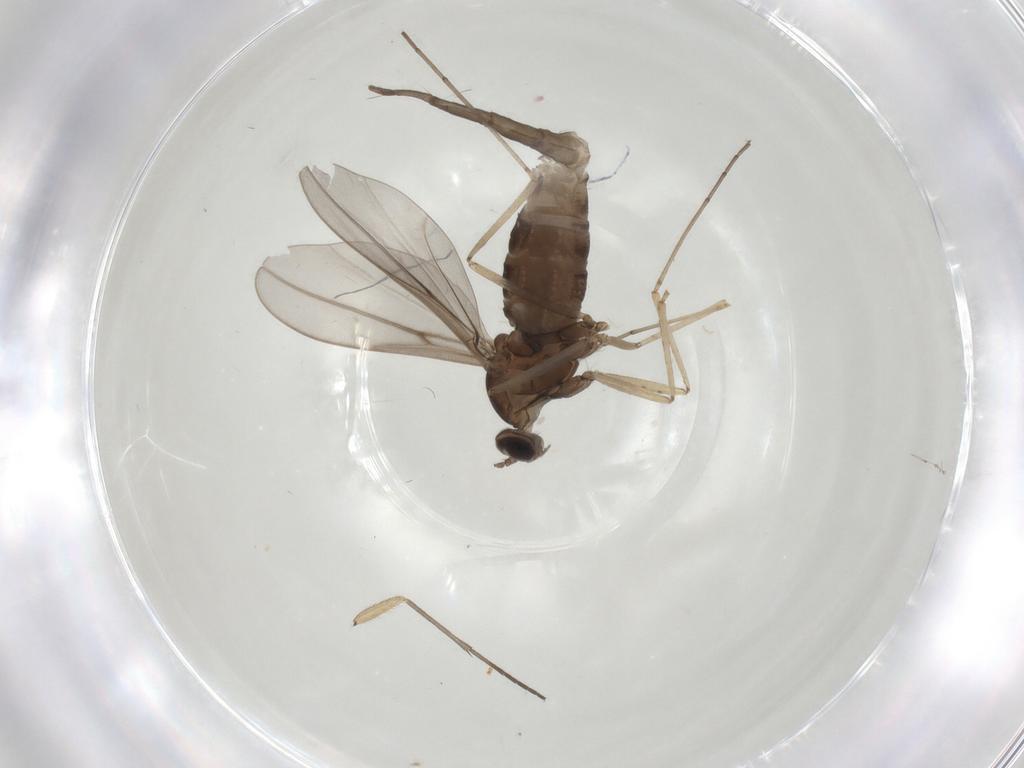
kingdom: Animalia
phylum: Arthropoda
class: Insecta
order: Diptera
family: Cecidomyiidae
